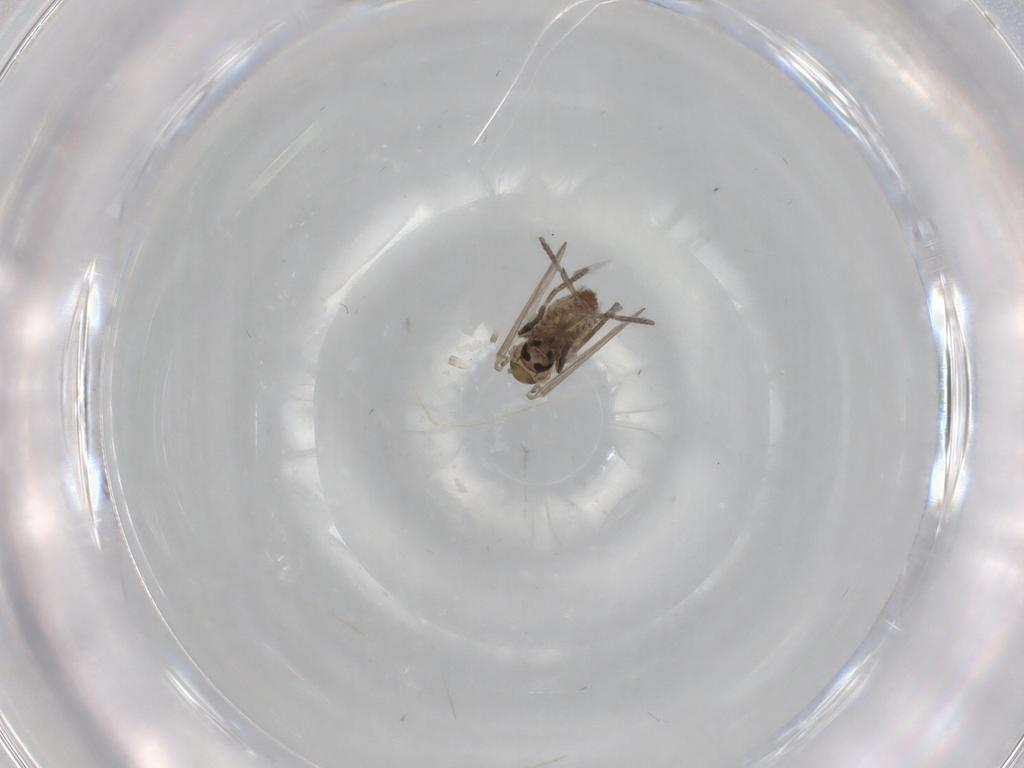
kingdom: Animalia
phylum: Arthropoda
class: Insecta
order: Diptera
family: Psychodidae
